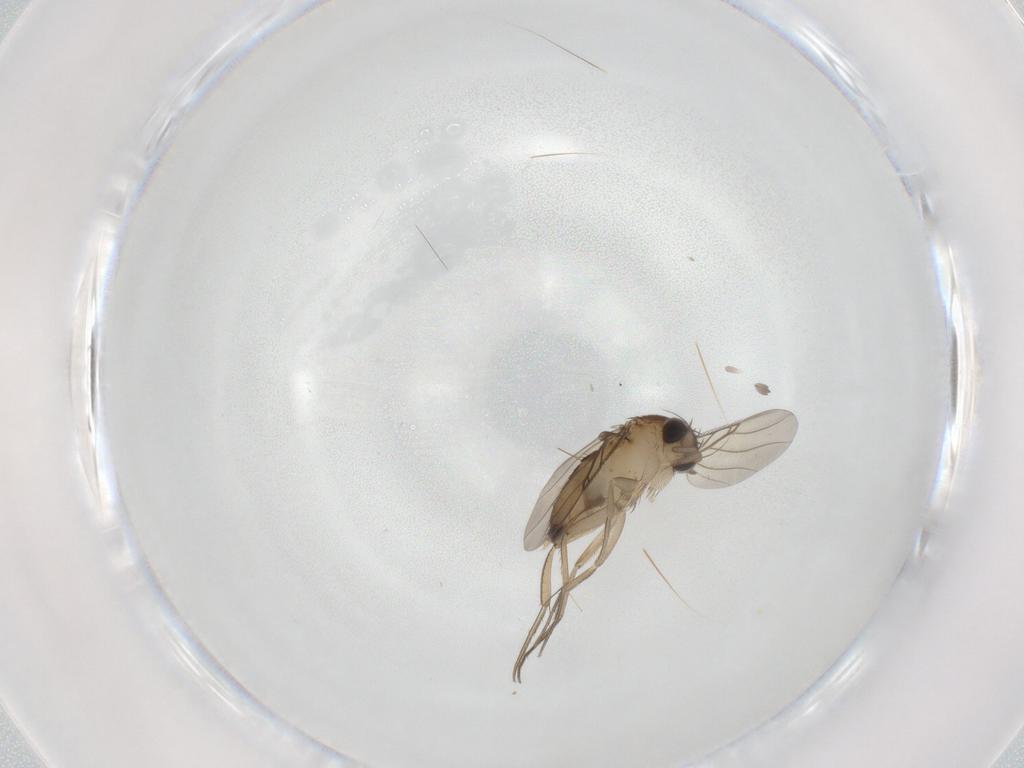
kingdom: Animalia
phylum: Arthropoda
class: Insecta
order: Diptera
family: Phoridae
